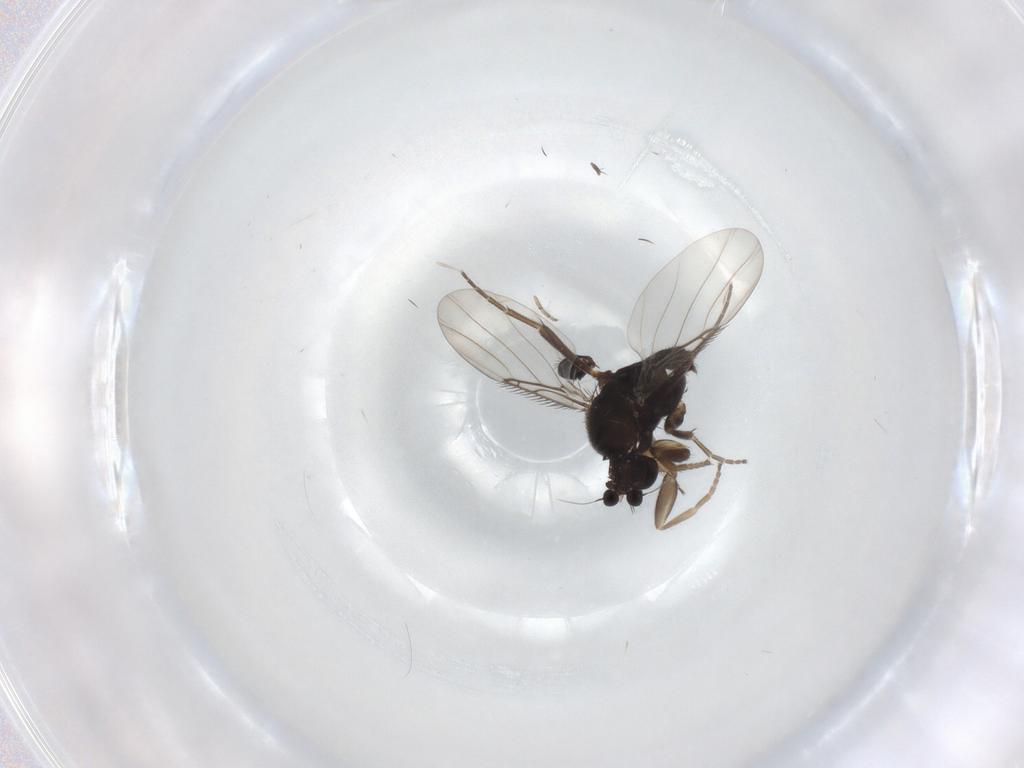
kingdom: Animalia
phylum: Arthropoda
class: Insecta
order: Diptera
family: Phoridae
